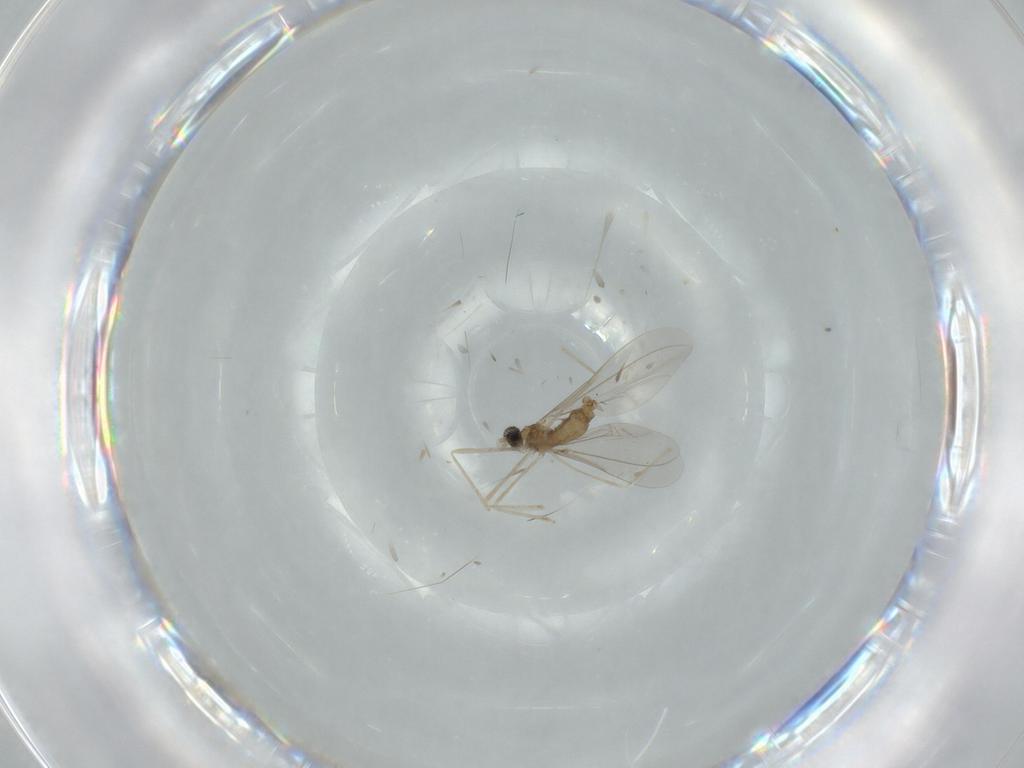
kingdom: Animalia
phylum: Arthropoda
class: Insecta
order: Diptera
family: Cecidomyiidae
